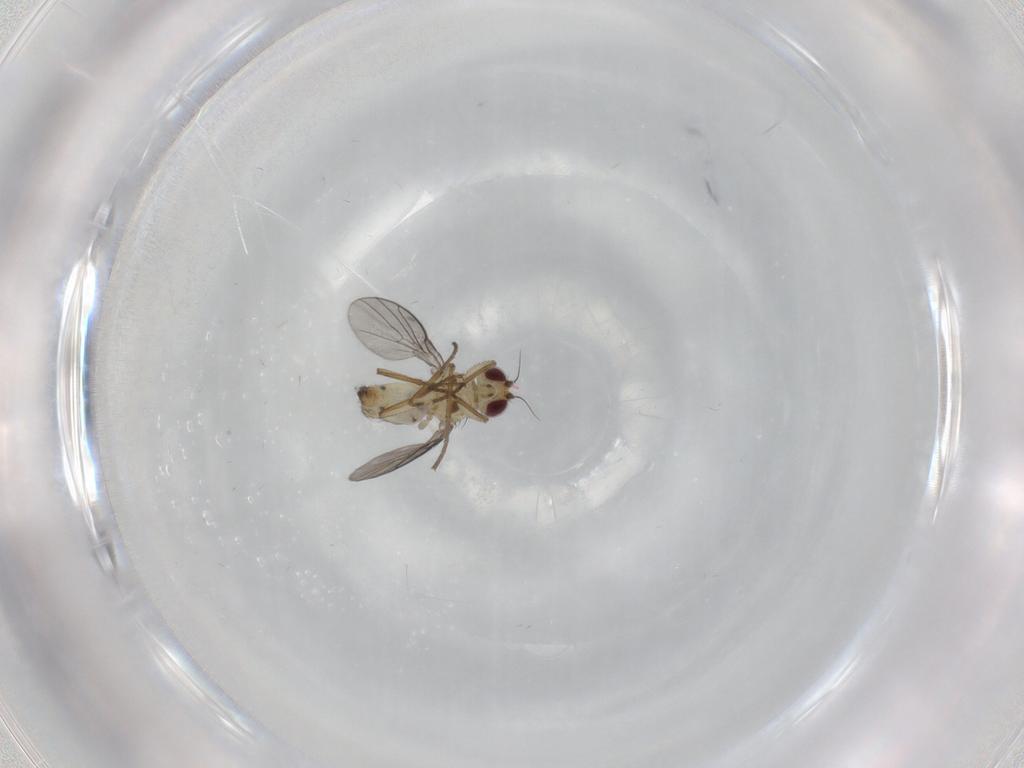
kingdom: Animalia
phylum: Arthropoda
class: Insecta
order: Diptera
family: Agromyzidae
